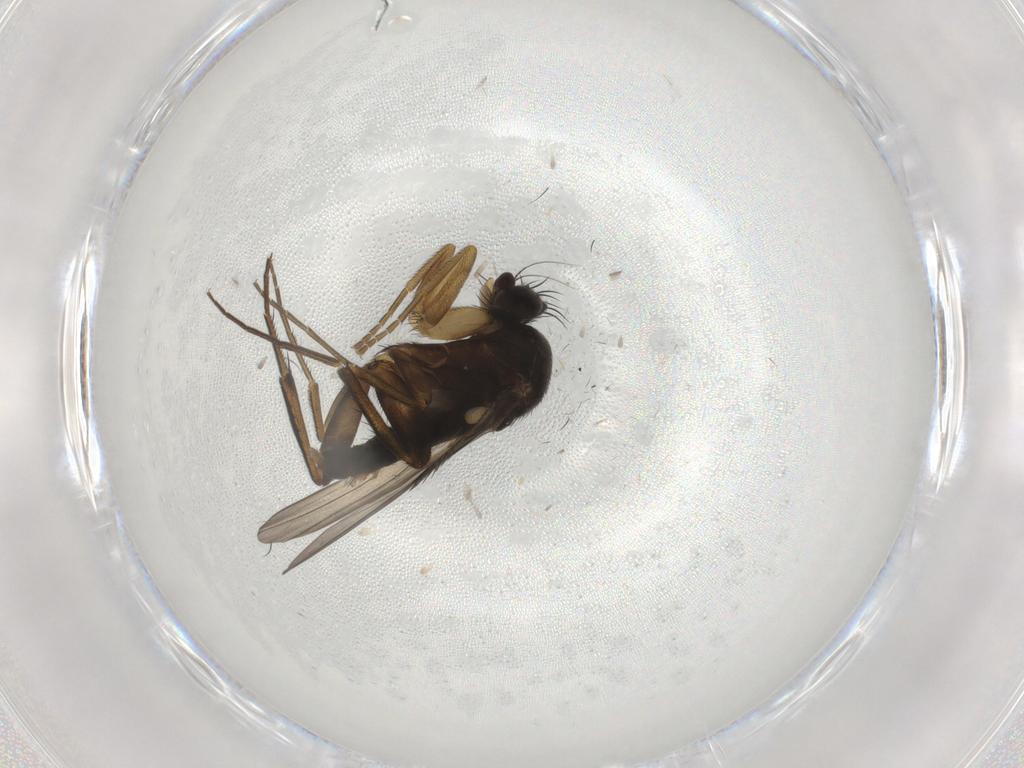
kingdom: Animalia
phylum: Arthropoda
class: Insecta
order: Diptera
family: Phoridae
